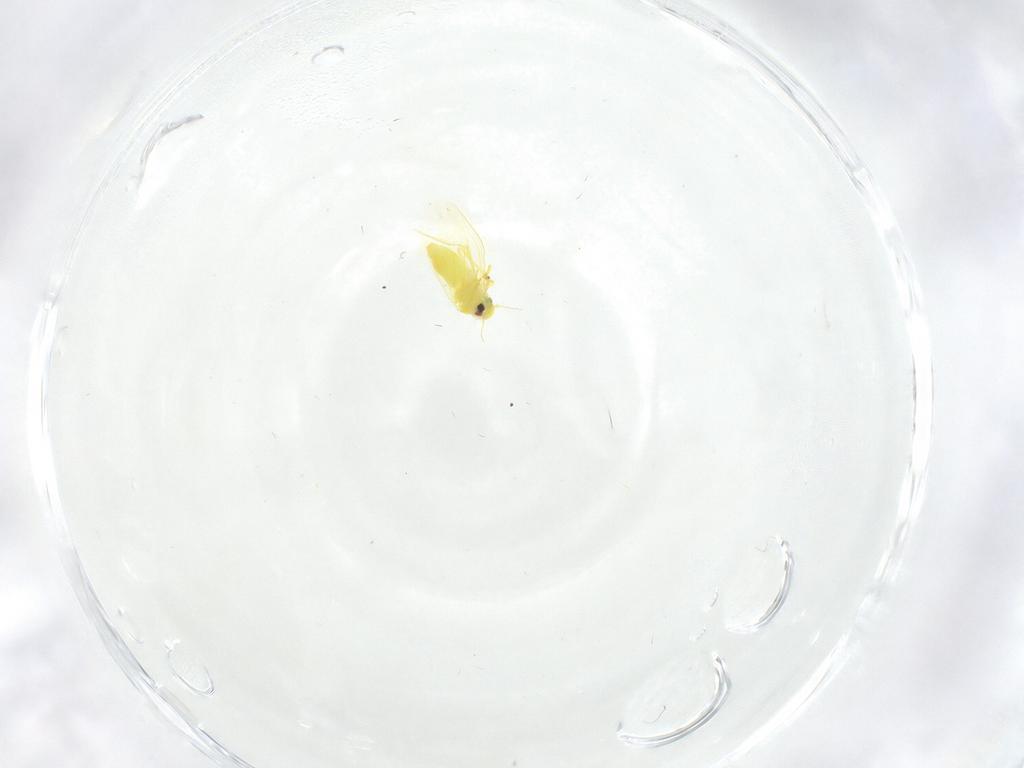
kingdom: Animalia
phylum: Arthropoda
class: Insecta
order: Hemiptera
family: Aleyrodidae
